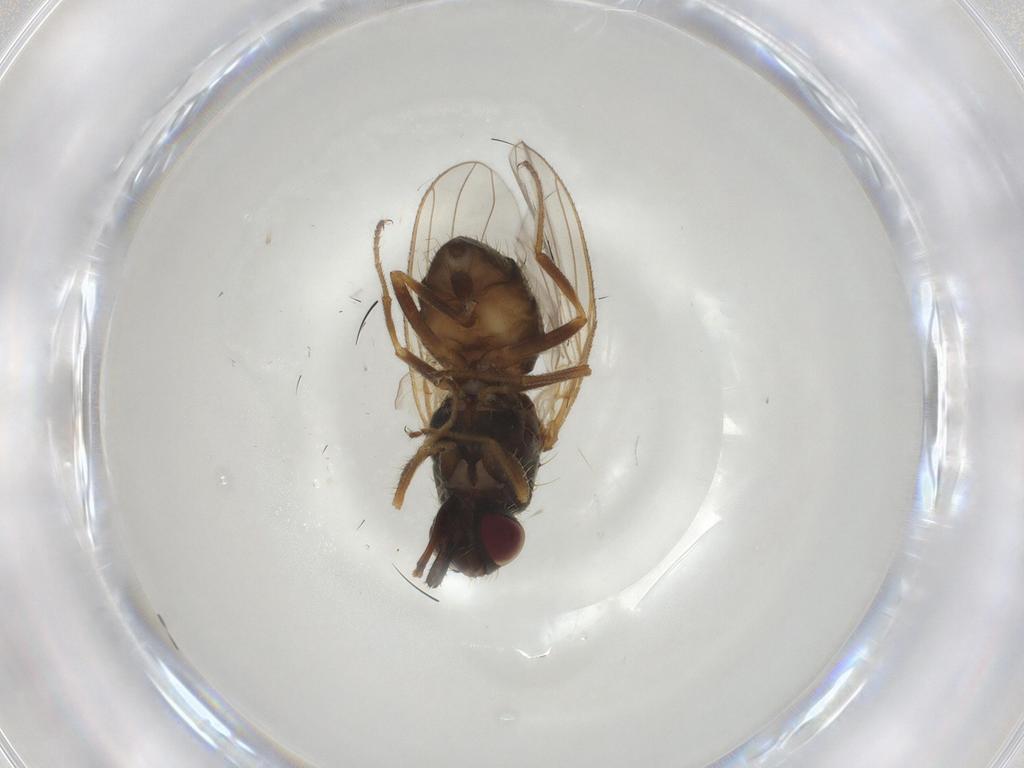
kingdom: Animalia
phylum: Arthropoda
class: Insecta
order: Diptera
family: Muscidae
